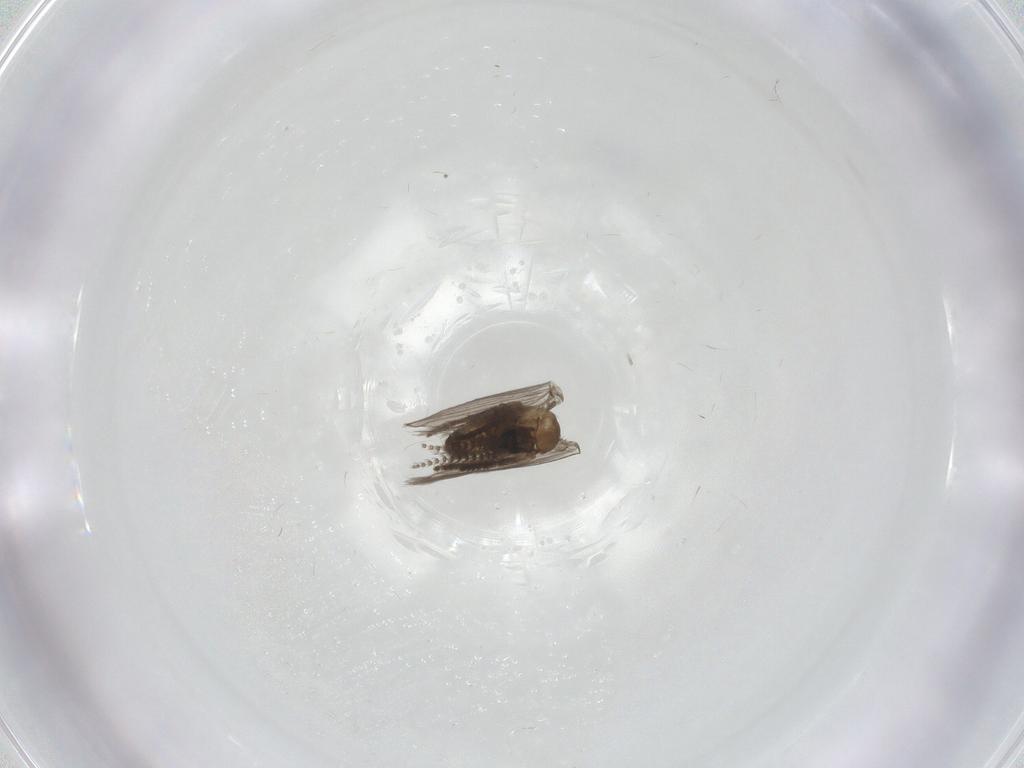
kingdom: Animalia
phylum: Arthropoda
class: Insecta
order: Diptera
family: Psychodidae
